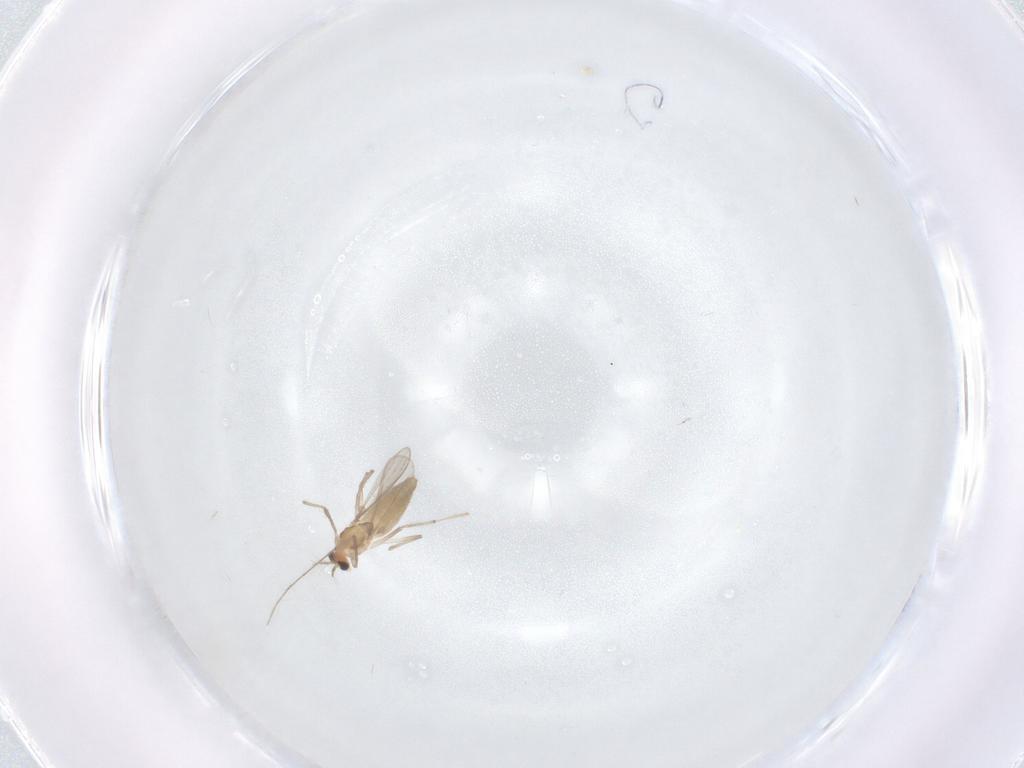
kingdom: Animalia
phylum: Arthropoda
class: Insecta
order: Diptera
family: Chironomidae
